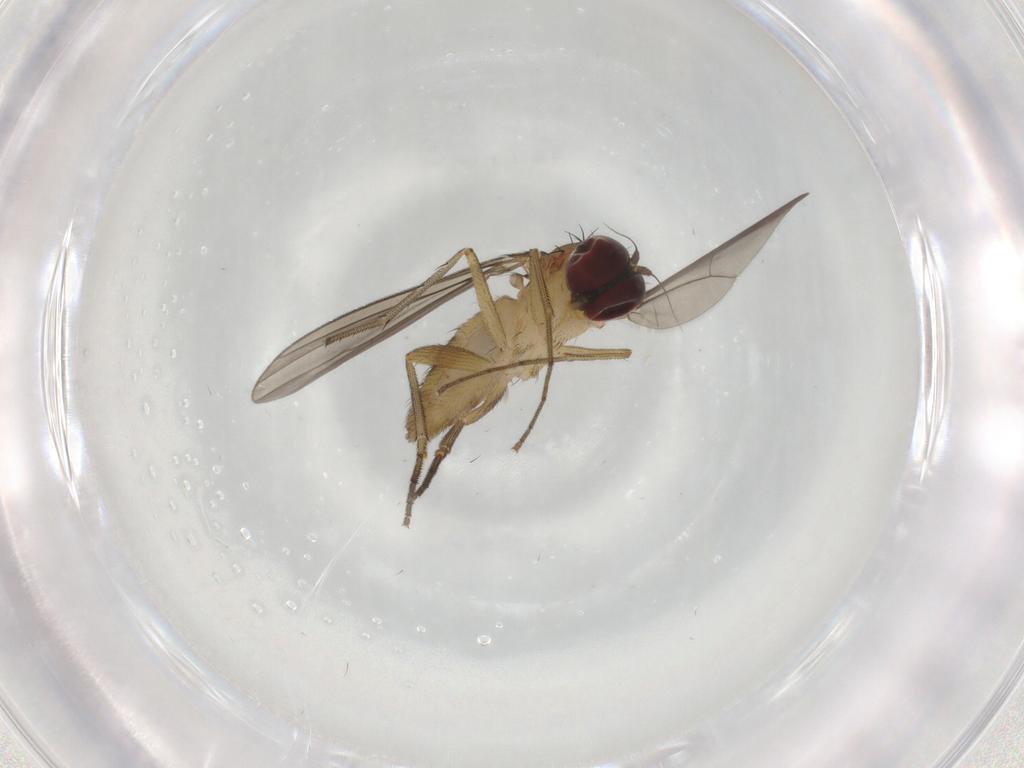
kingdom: Animalia
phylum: Arthropoda
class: Insecta
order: Diptera
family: Dolichopodidae
